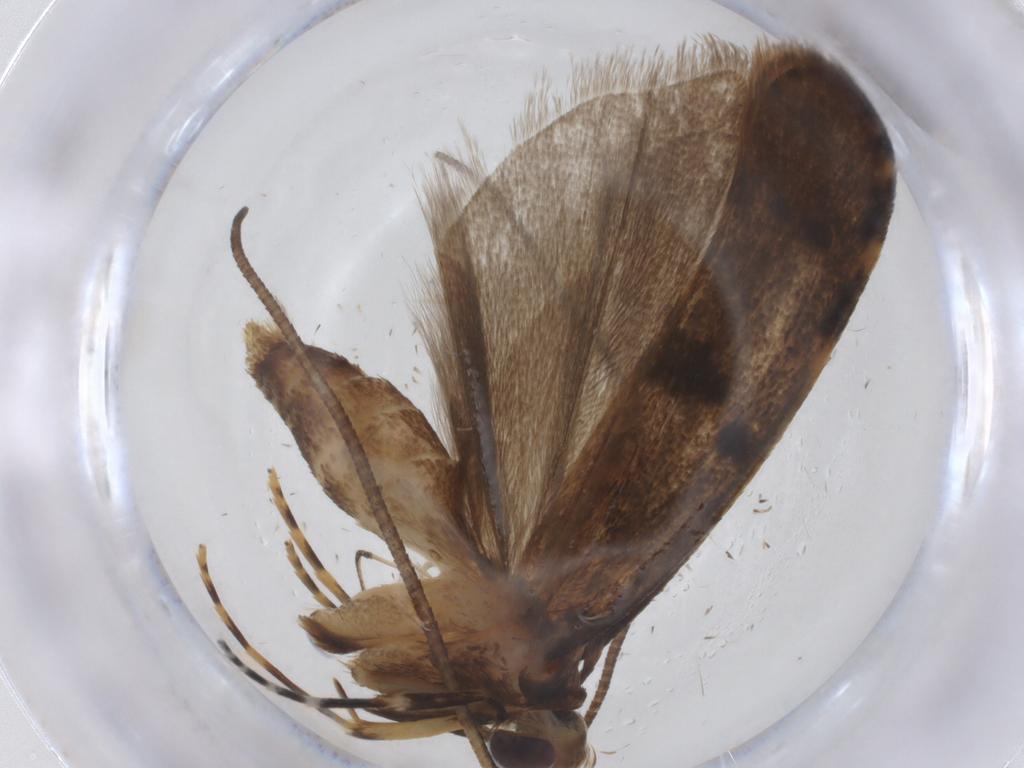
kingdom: Animalia
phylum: Arthropoda
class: Insecta
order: Lepidoptera
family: Autostichidae
